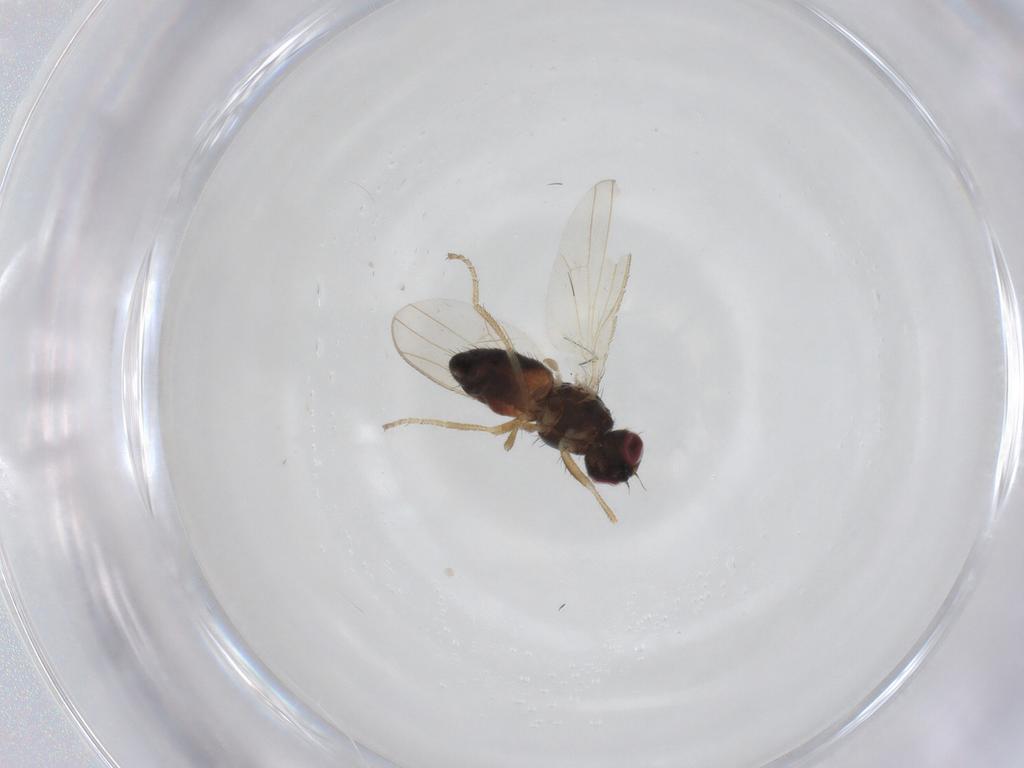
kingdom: Animalia
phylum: Arthropoda
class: Insecta
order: Diptera
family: Heleomyzidae
